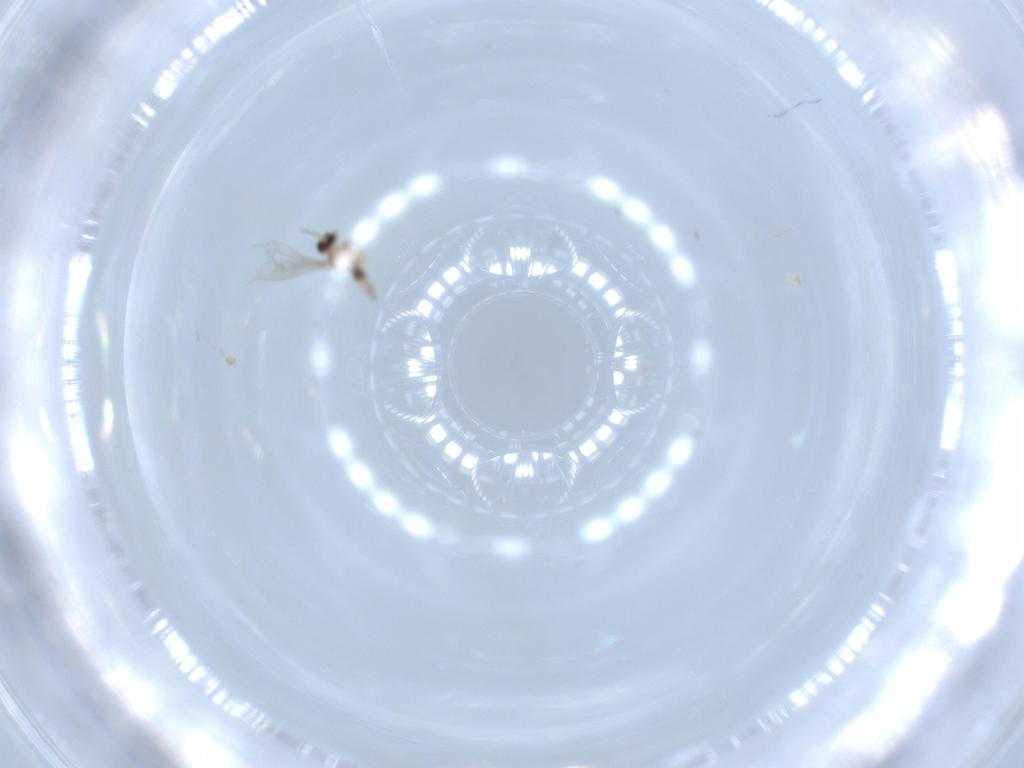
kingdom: Animalia
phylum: Arthropoda
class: Insecta
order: Diptera
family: Cecidomyiidae
